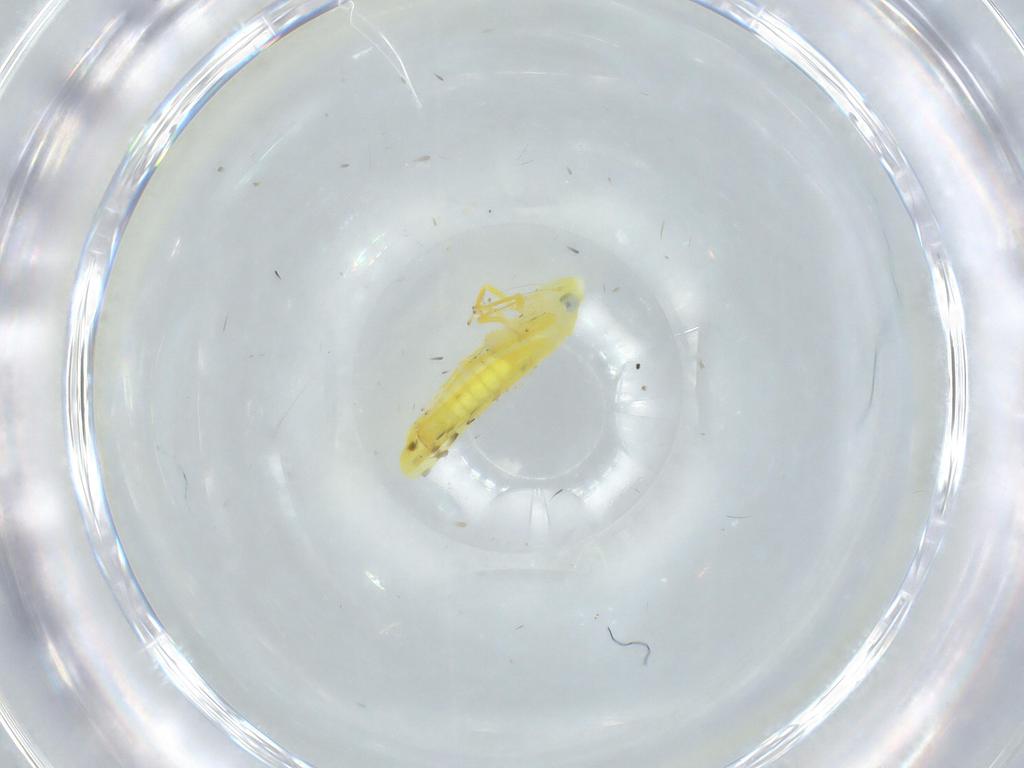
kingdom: Animalia
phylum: Arthropoda
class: Insecta
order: Hemiptera
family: Cicadellidae
